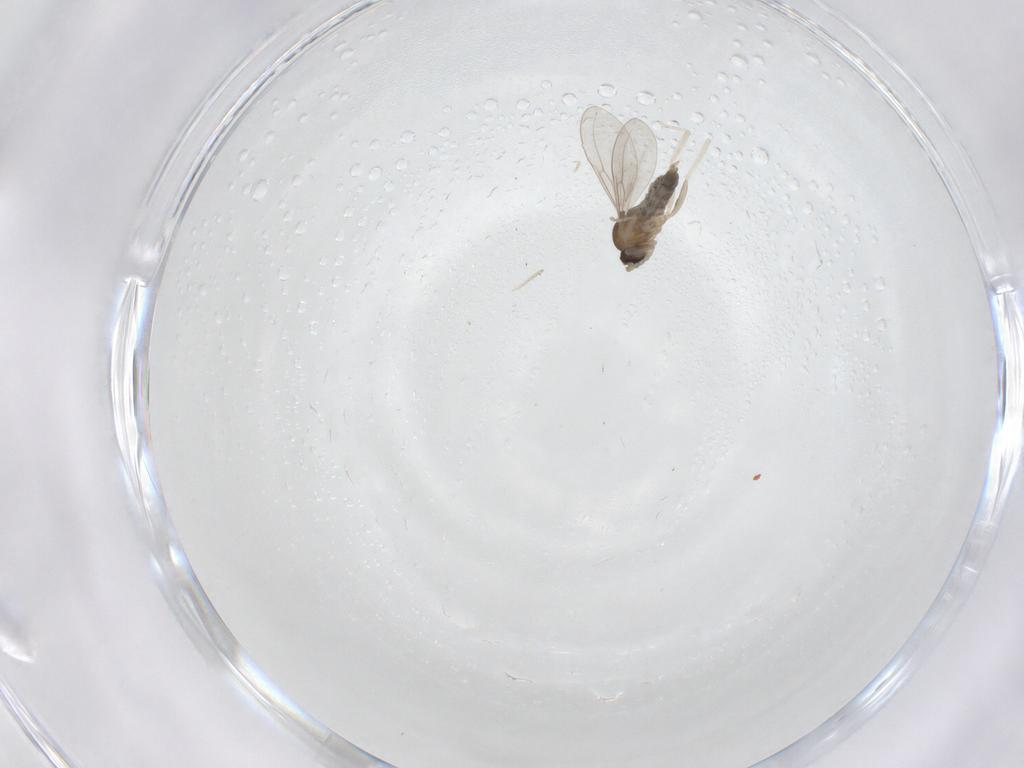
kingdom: Animalia
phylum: Arthropoda
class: Insecta
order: Diptera
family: Cecidomyiidae
